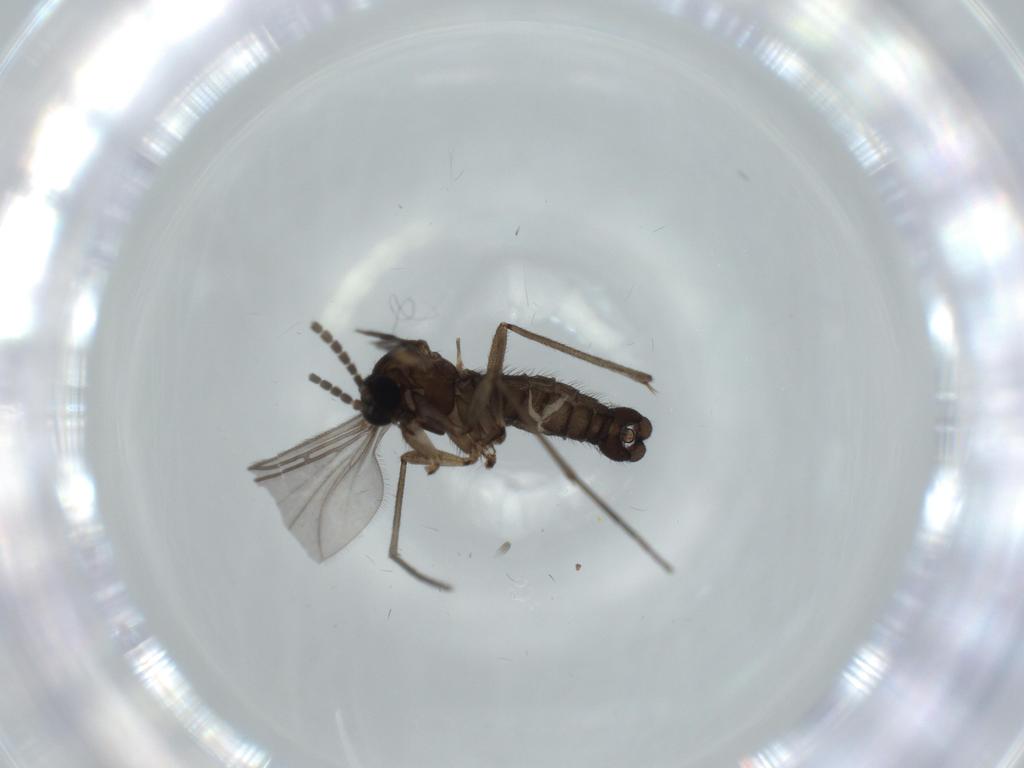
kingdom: Animalia
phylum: Arthropoda
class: Insecta
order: Diptera
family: Sciaridae
